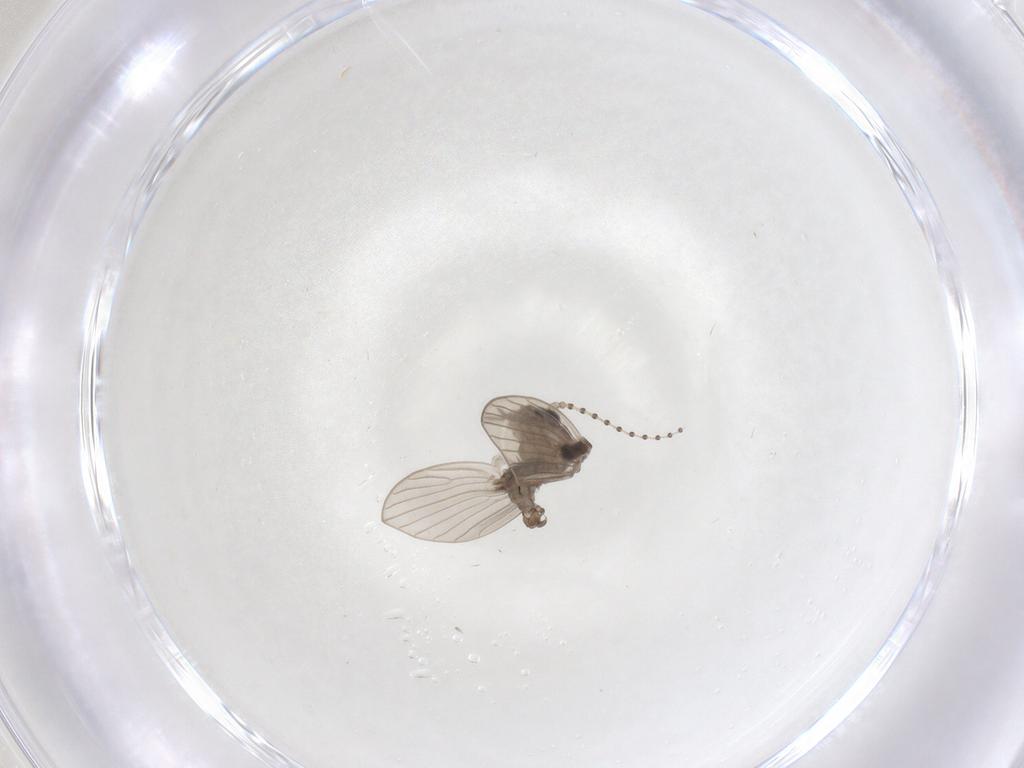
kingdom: Animalia
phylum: Arthropoda
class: Insecta
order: Diptera
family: Psychodidae
